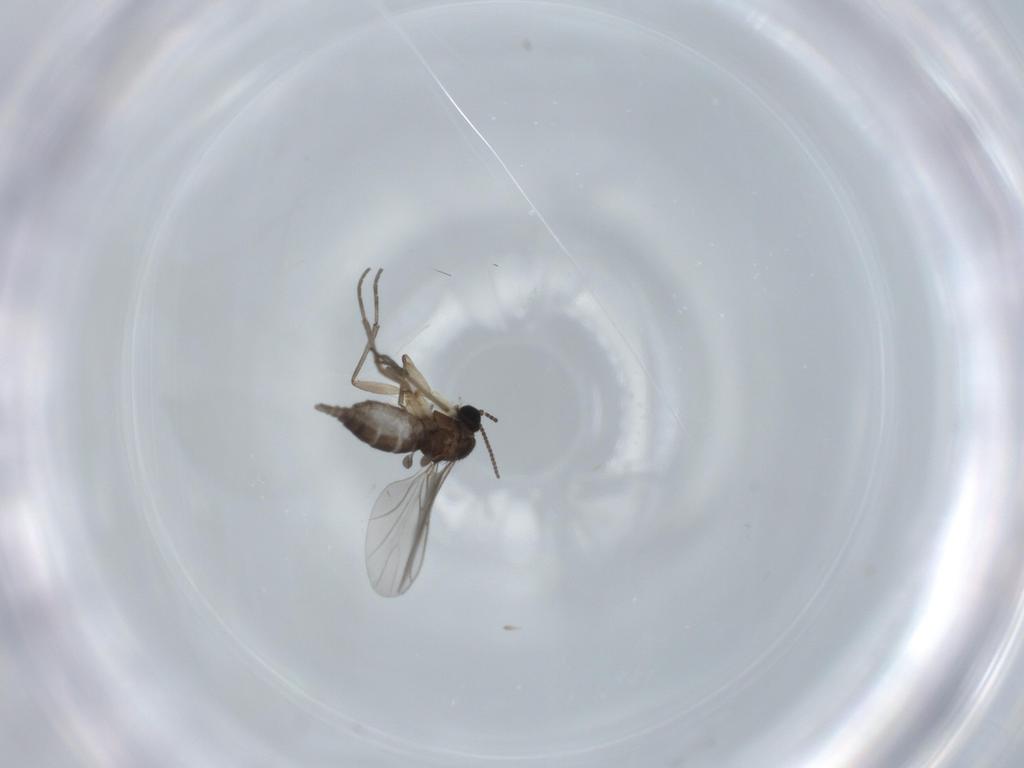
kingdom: Animalia
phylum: Arthropoda
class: Insecta
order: Diptera
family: Sciaridae
